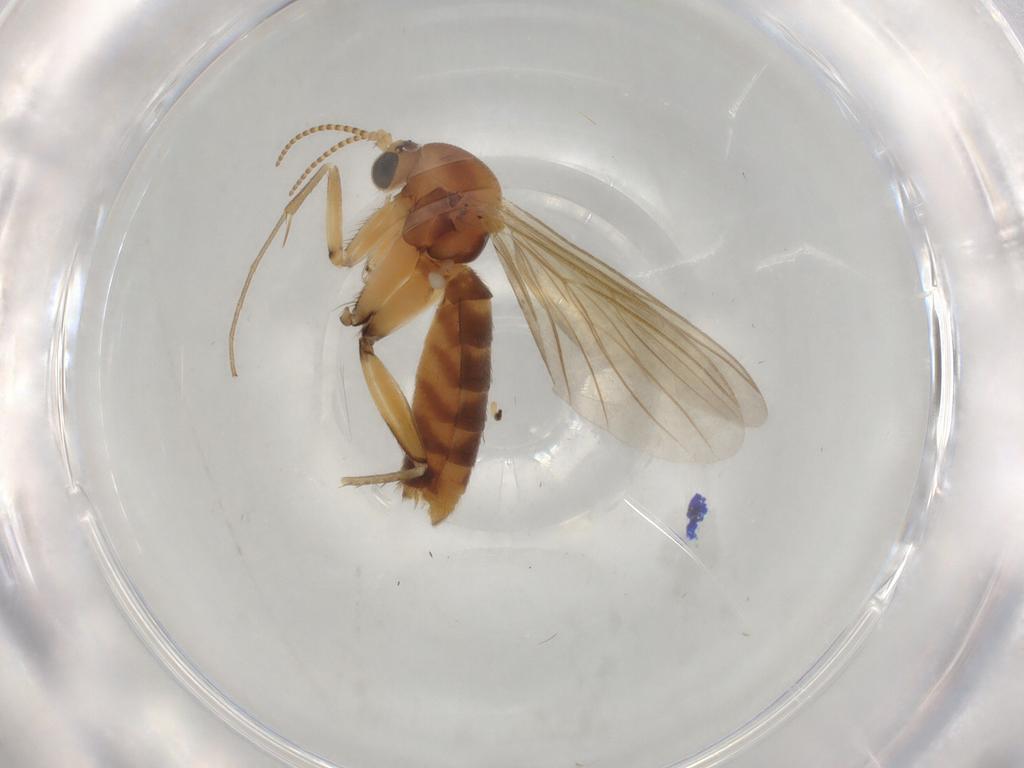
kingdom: Animalia
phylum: Arthropoda
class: Insecta
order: Diptera
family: Mycetophilidae
